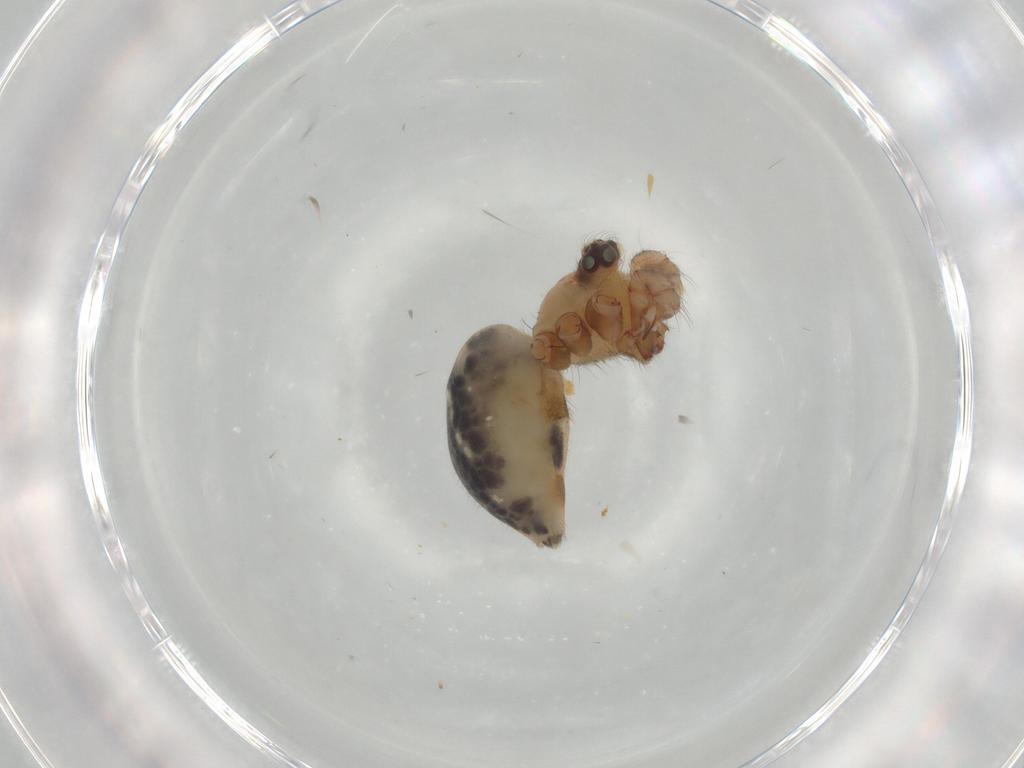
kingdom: Animalia
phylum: Arthropoda
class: Arachnida
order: Araneae
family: Pholcidae
